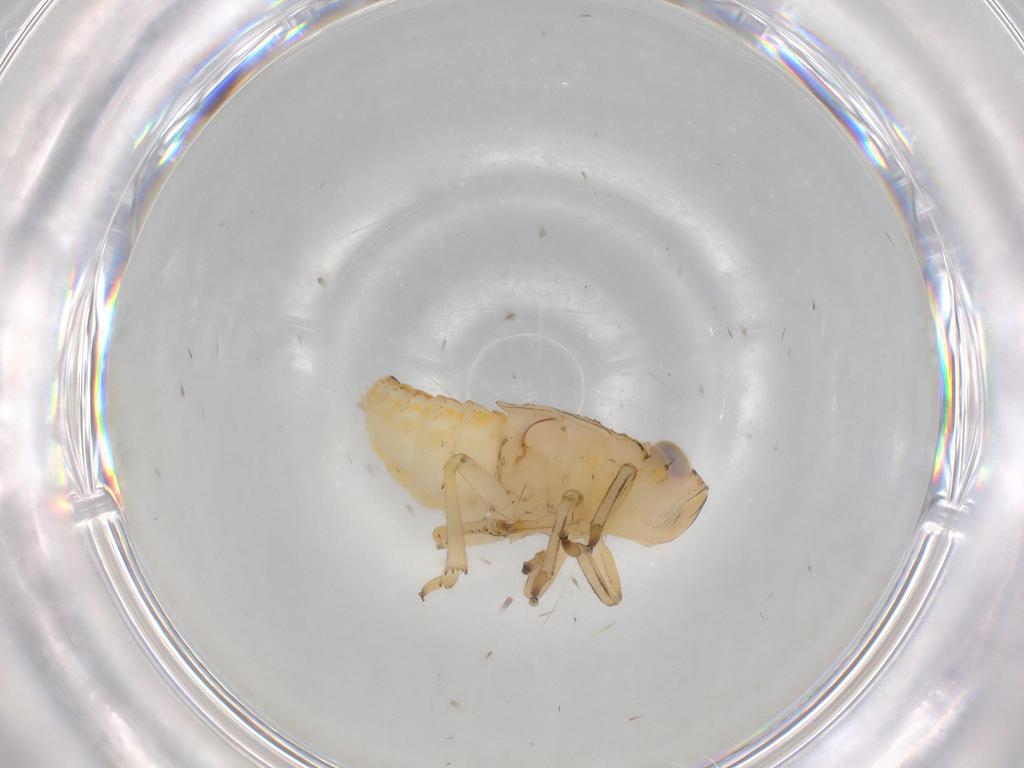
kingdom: Animalia
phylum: Arthropoda
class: Insecta
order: Hemiptera
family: Issidae
